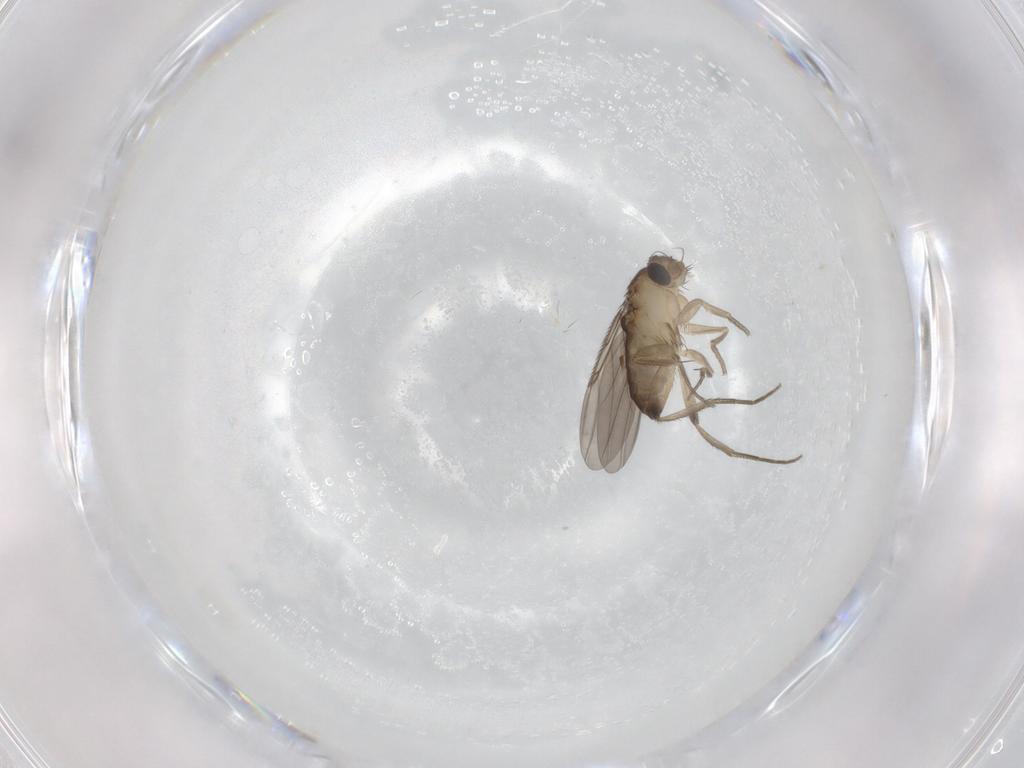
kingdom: Animalia
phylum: Arthropoda
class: Insecta
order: Diptera
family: Phoridae
